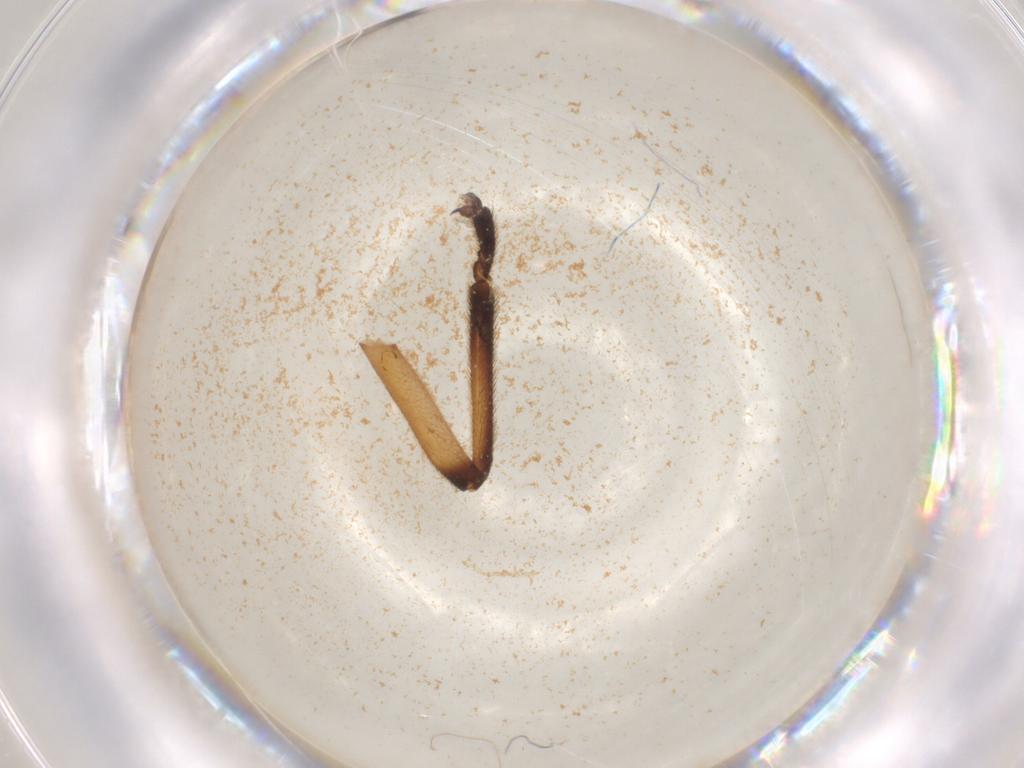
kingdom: Animalia
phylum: Arthropoda
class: Insecta
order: Hemiptera
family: Cercopidae
